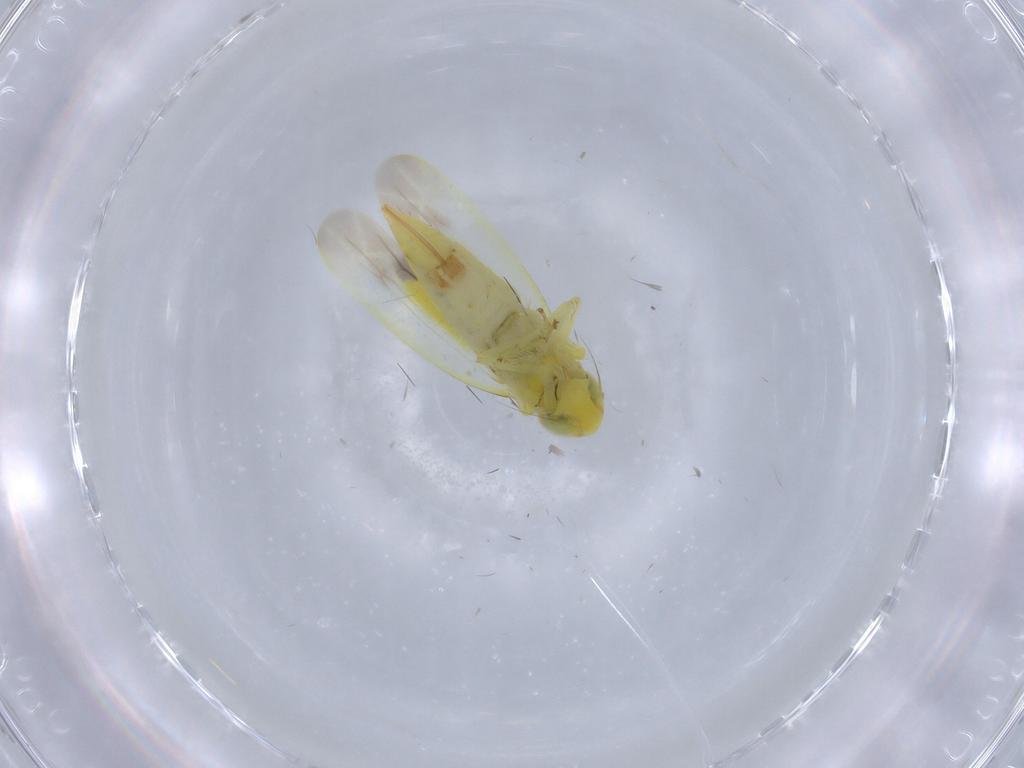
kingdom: Animalia
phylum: Arthropoda
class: Insecta
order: Hemiptera
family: Cicadellidae
